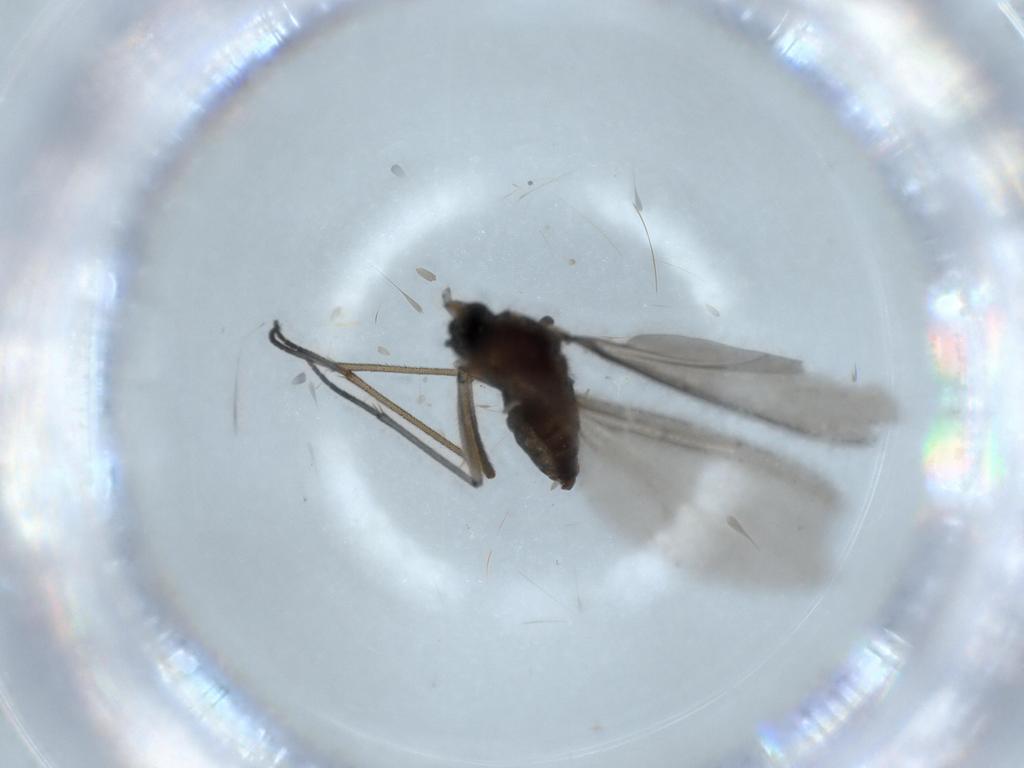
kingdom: Animalia
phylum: Arthropoda
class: Insecta
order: Diptera
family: Sciaridae
